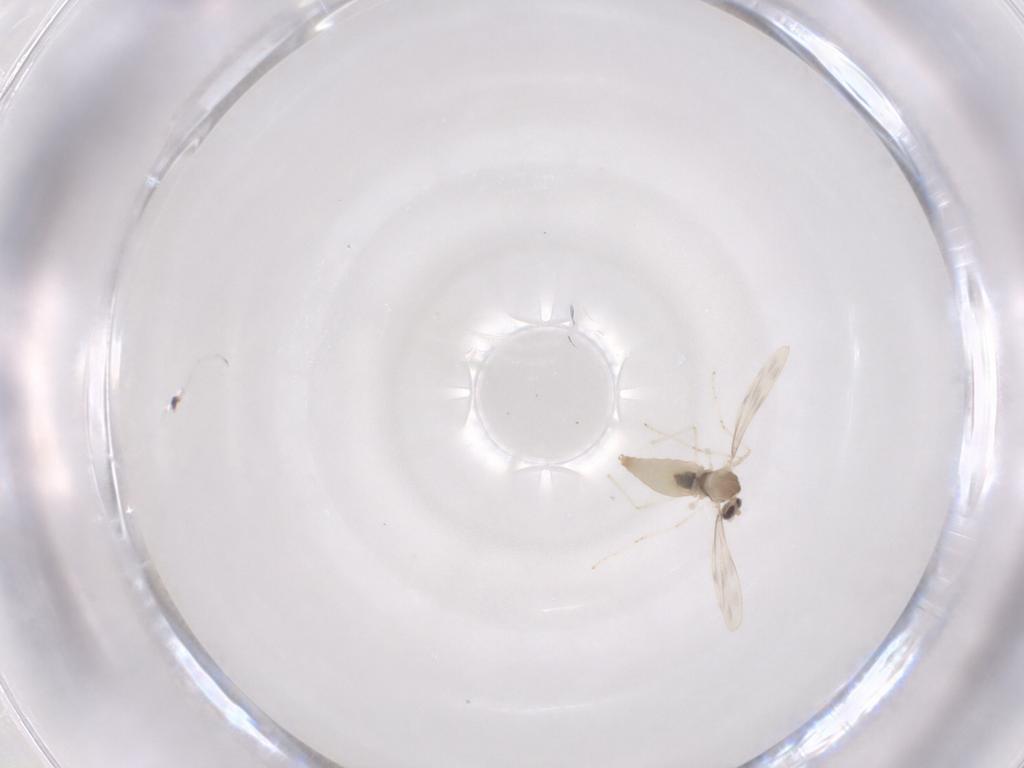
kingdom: Animalia
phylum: Arthropoda
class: Insecta
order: Diptera
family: Cecidomyiidae
